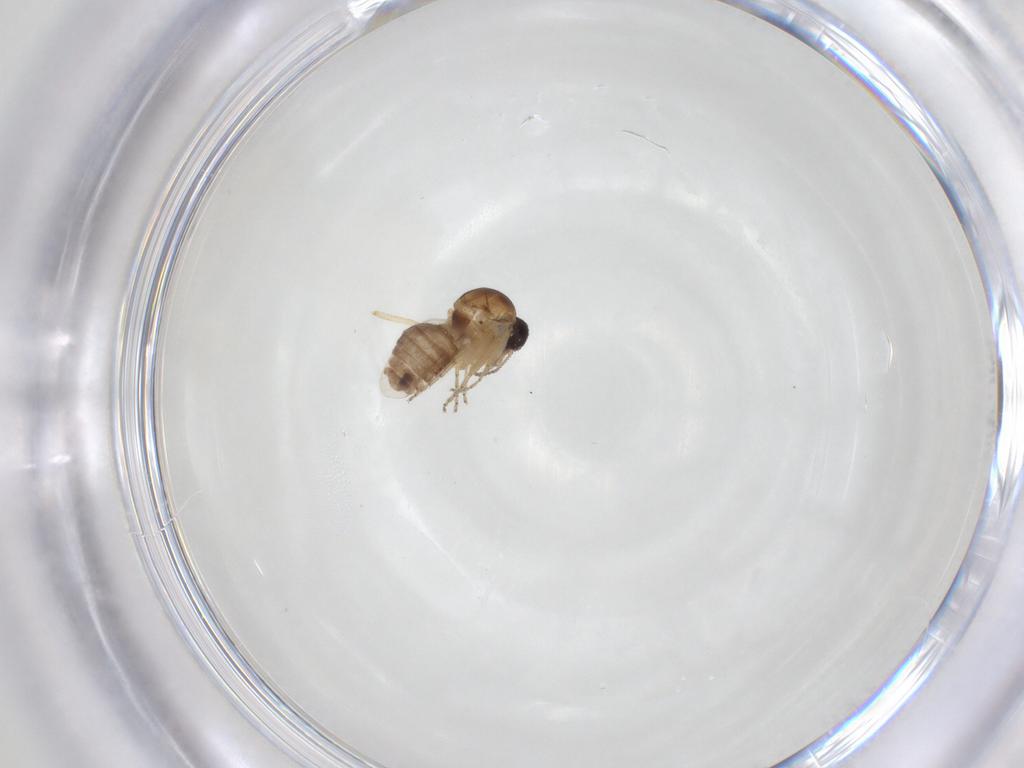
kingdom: Animalia
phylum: Arthropoda
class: Insecta
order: Diptera
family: Ceratopogonidae
